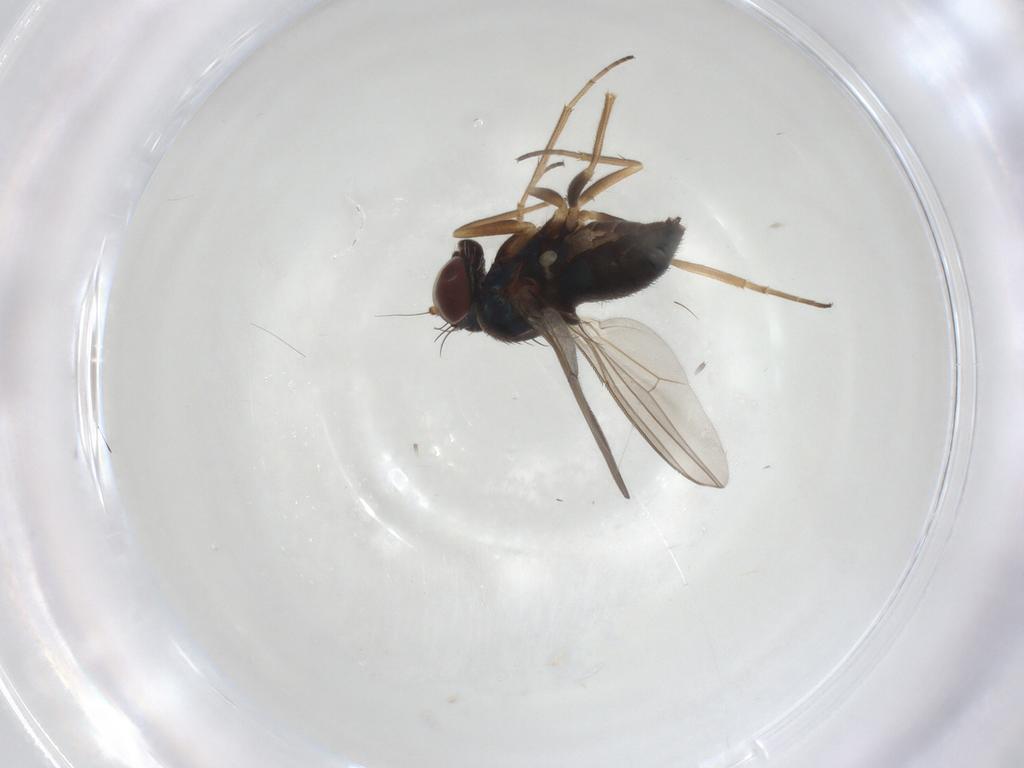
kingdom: Animalia
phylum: Arthropoda
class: Insecta
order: Diptera
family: Dolichopodidae
